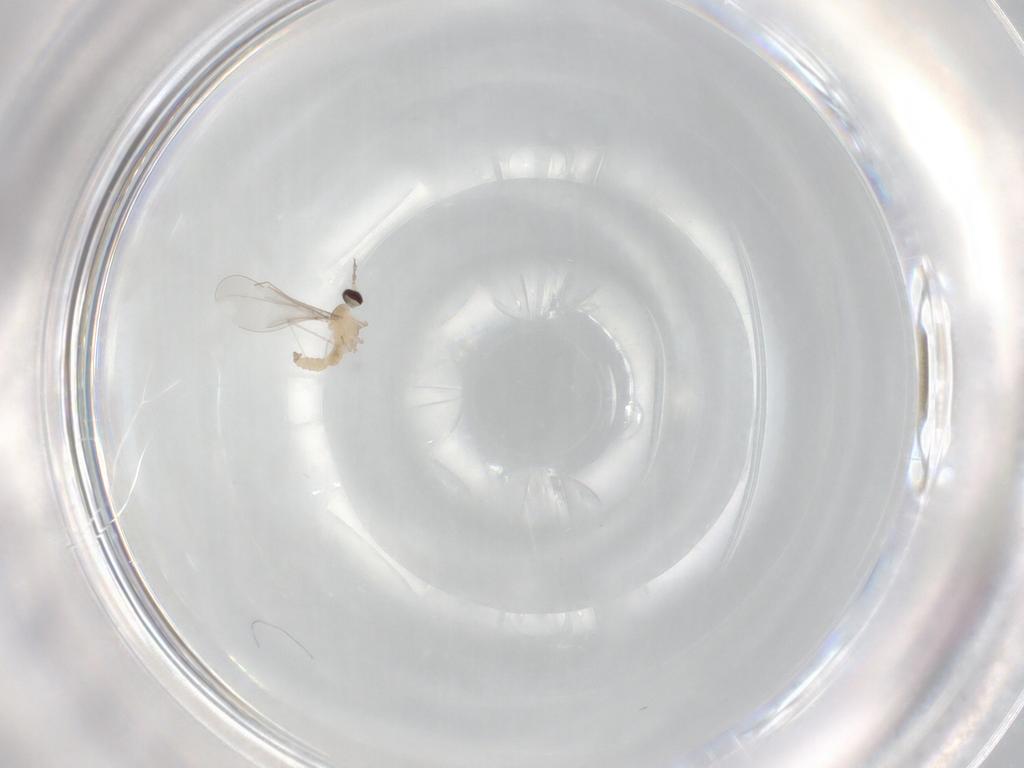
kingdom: Animalia
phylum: Arthropoda
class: Insecta
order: Diptera
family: Cecidomyiidae
